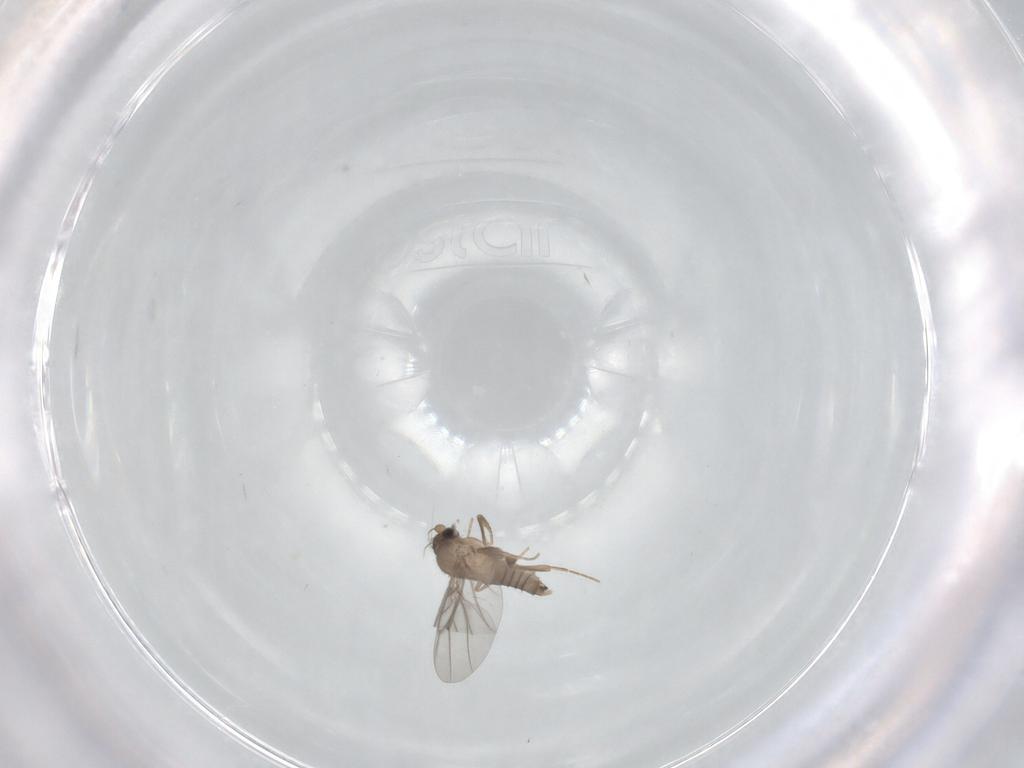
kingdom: Animalia
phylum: Arthropoda
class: Insecta
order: Diptera
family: Cecidomyiidae
